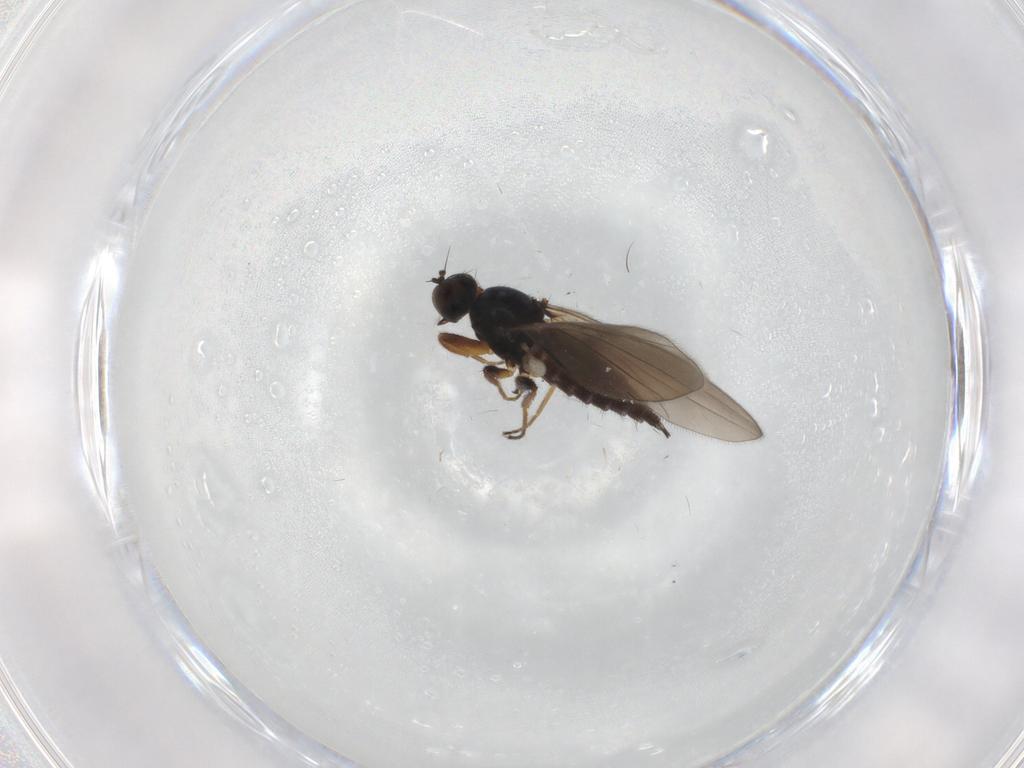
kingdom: Animalia
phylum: Arthropoda
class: Insecta
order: Diptera
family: Hybotidae
